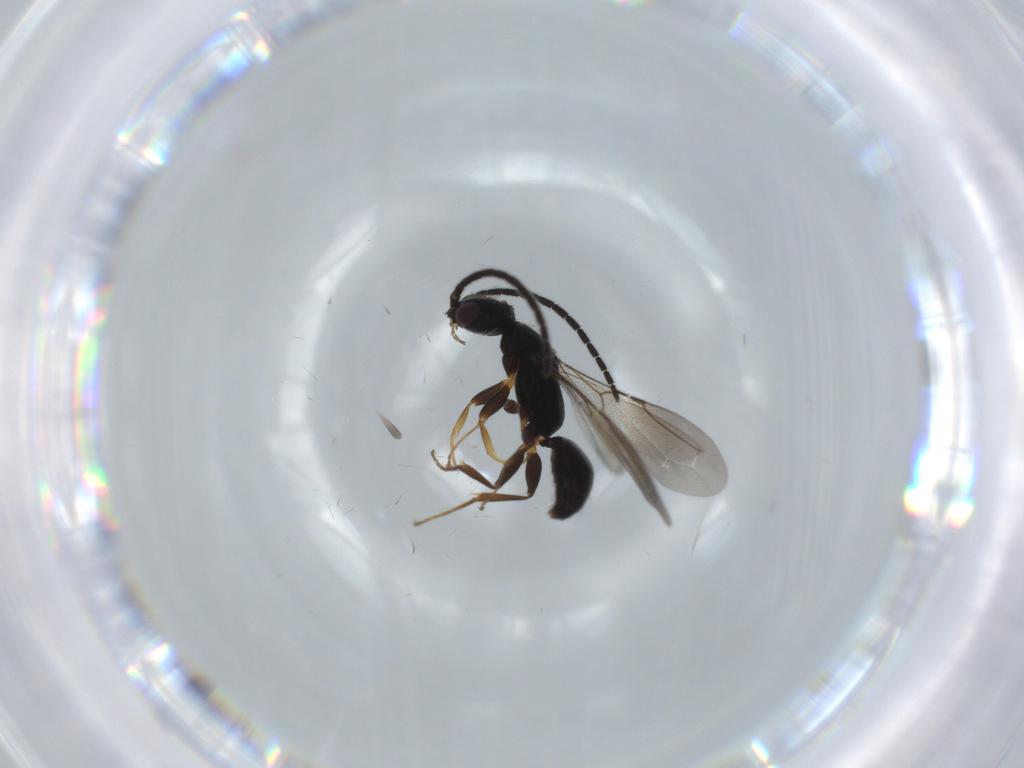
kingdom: Animalia
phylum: Arthropoda
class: Insecta
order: Hymenoptera
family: Bethylidae
